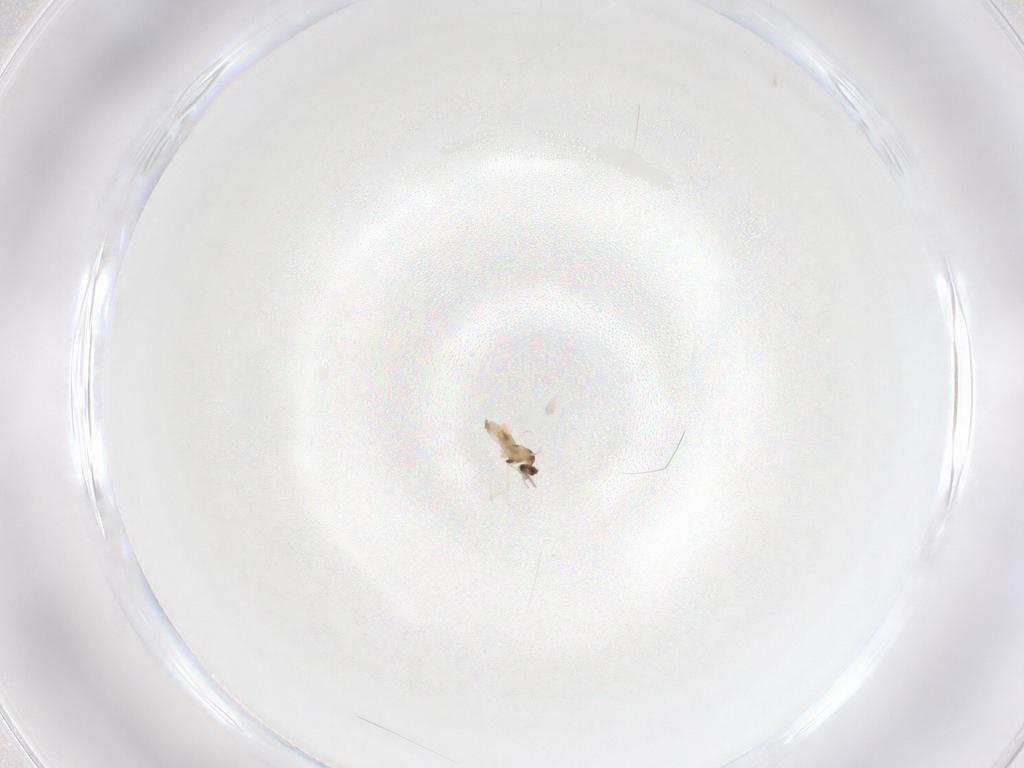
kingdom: Animalia
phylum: Arthropoda
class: Insecta
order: Diptera
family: Cecidomyiidae
